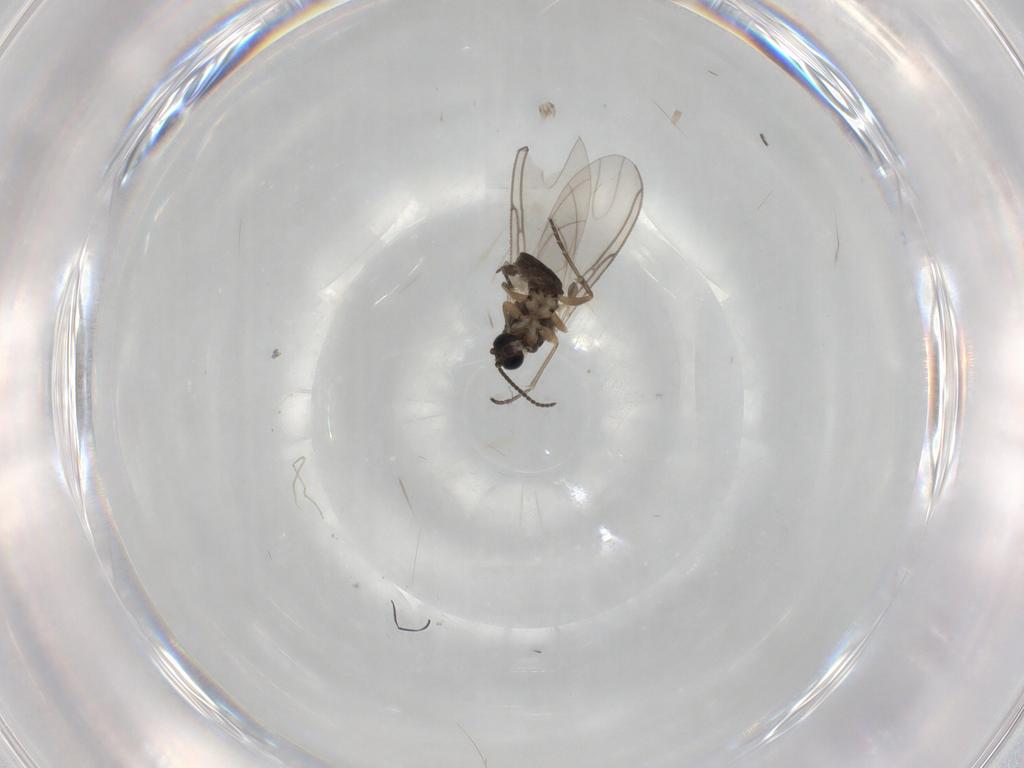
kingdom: Animalia
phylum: Arthropoda
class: Insecta
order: Diptera
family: Sciaridae
